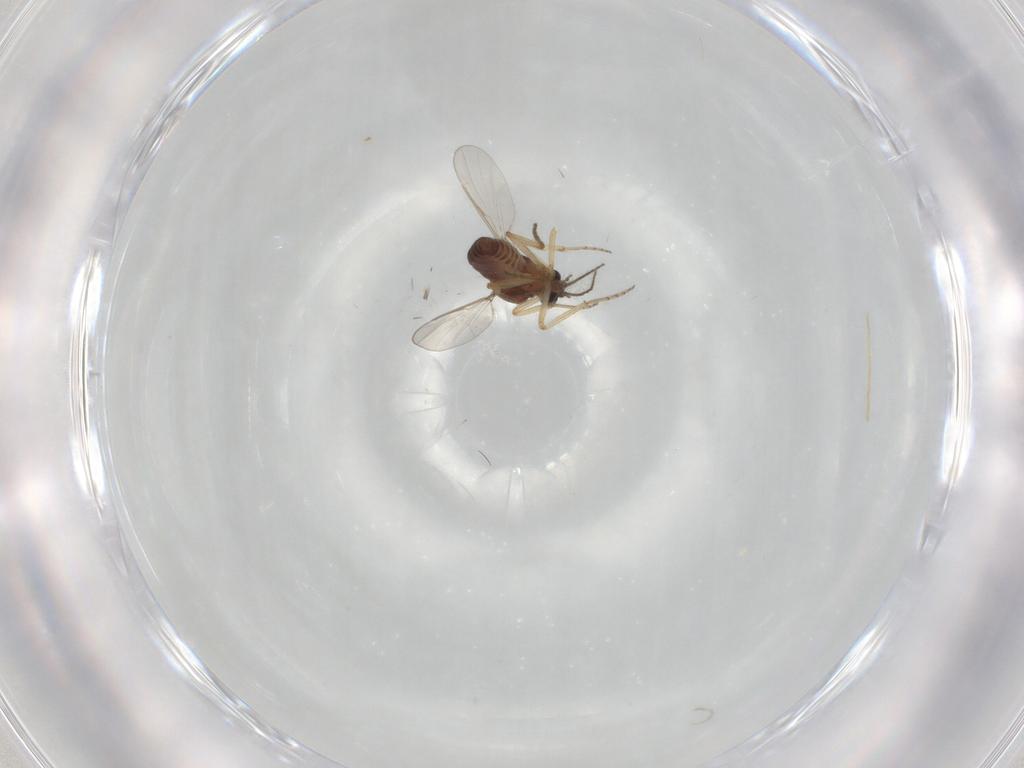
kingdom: Animalia
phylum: Arthropoda
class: Insecta
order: Diptera
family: Ceratopogonidae
